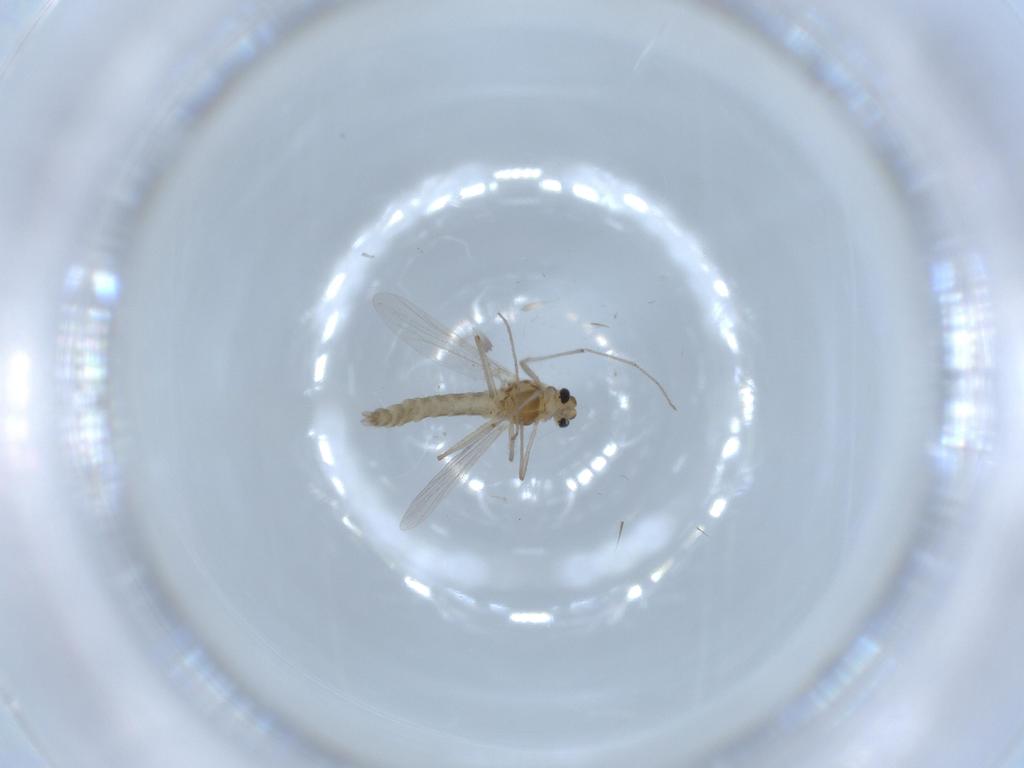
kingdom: Animalia
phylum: Arthropoda
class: Insecta
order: Diptera
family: Chironomidae
